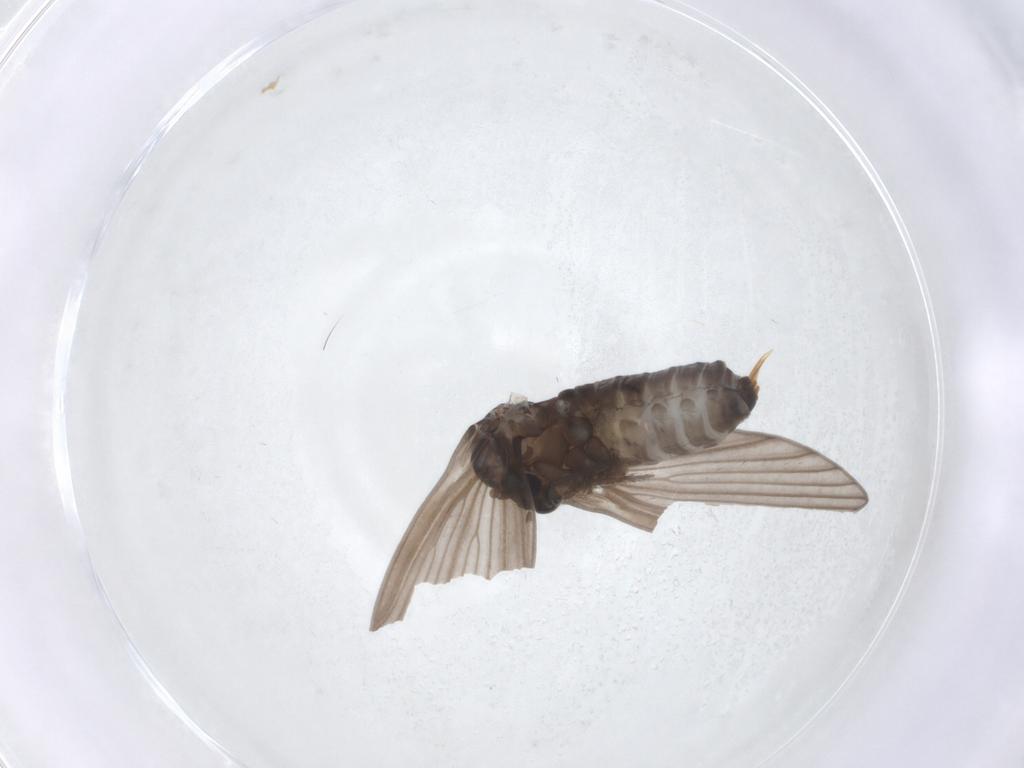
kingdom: Animalia
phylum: Arthropoda
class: Insecta
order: Diptera
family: Psychodidae
